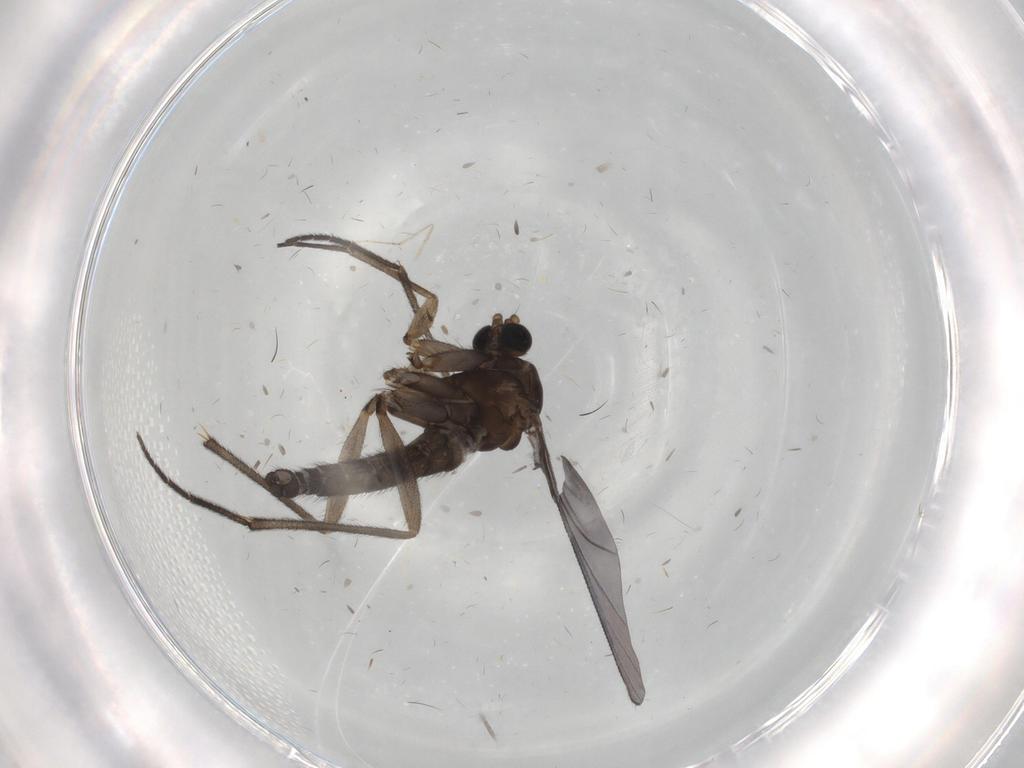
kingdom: Animalia
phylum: Arthropoda
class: Insecta
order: Diptera
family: Sciaridae
